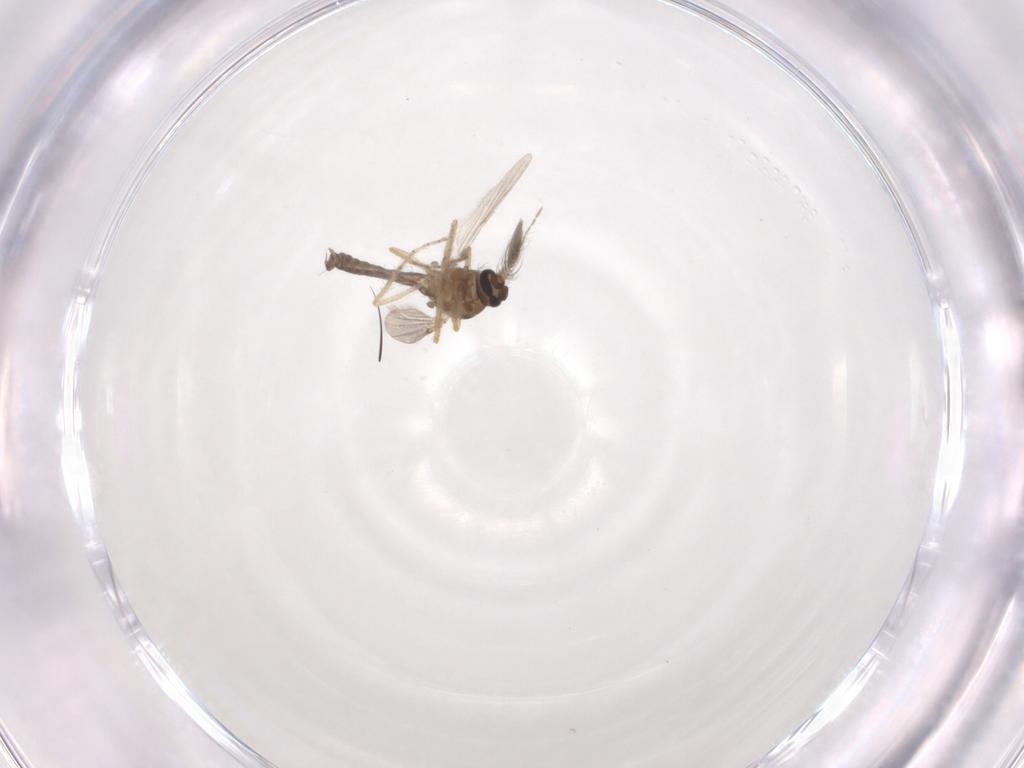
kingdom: Animalia
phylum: Arthropoda
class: Insecta
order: Diptera
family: Ceratopogonidae
